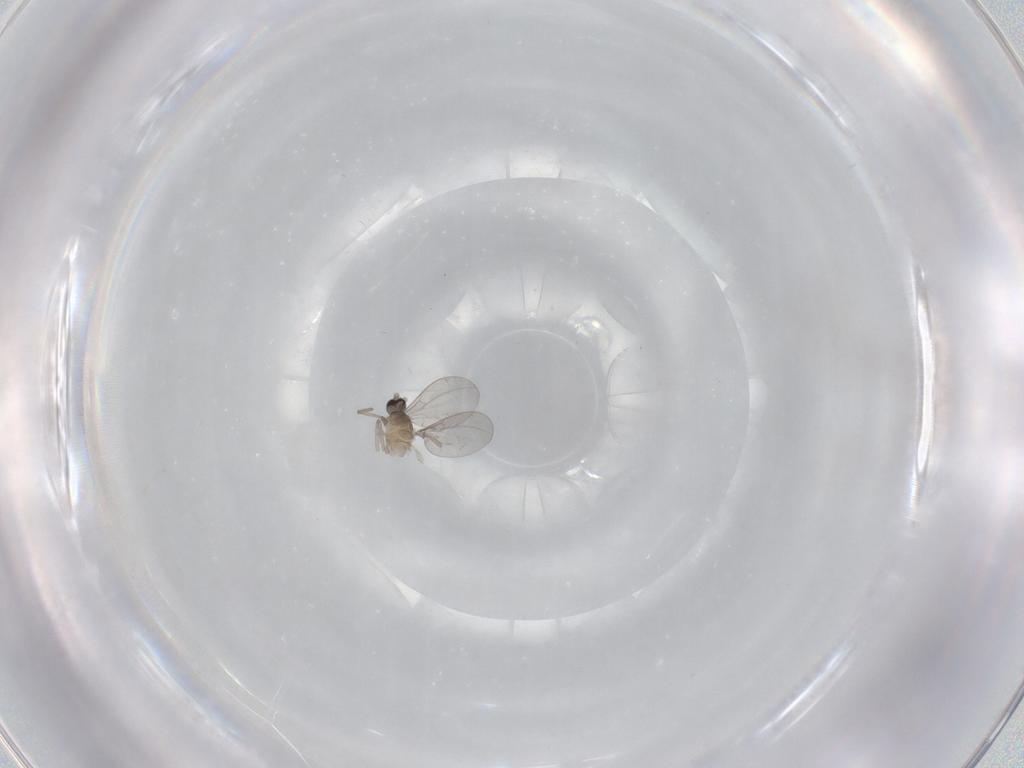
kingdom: Animalia
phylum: Arthropoda
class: Insecta
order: Diptera
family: Cecidomyiidae
